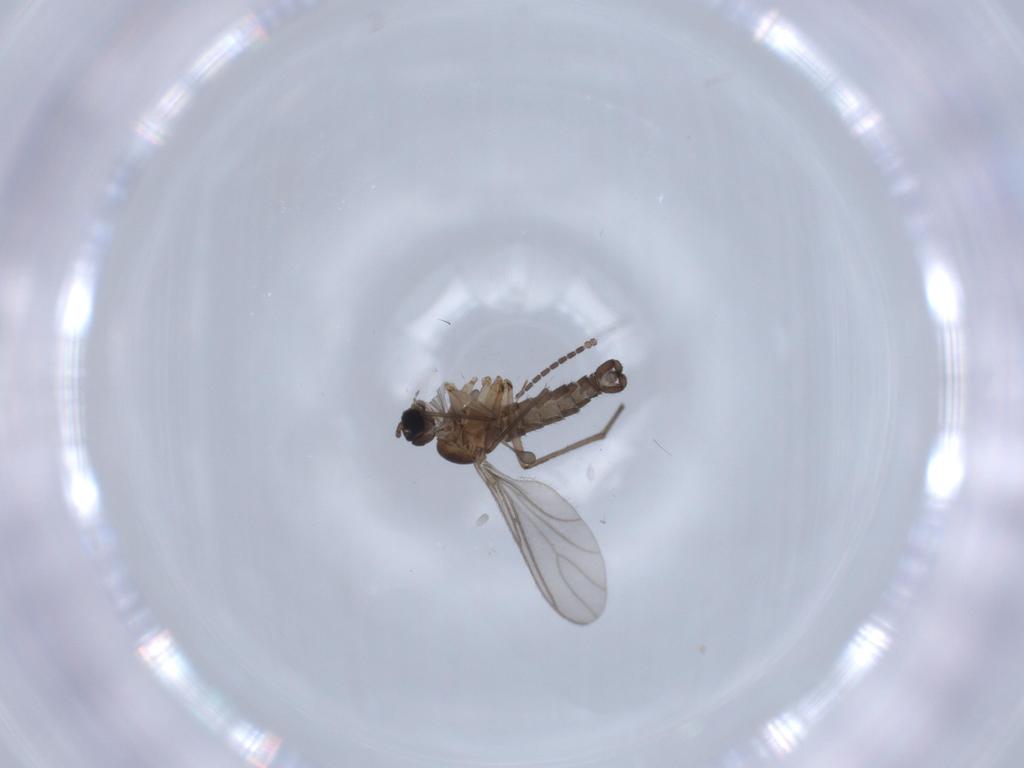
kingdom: Animalia
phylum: Arthropoda
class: Insecta
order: Diptera
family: Sciaridae
